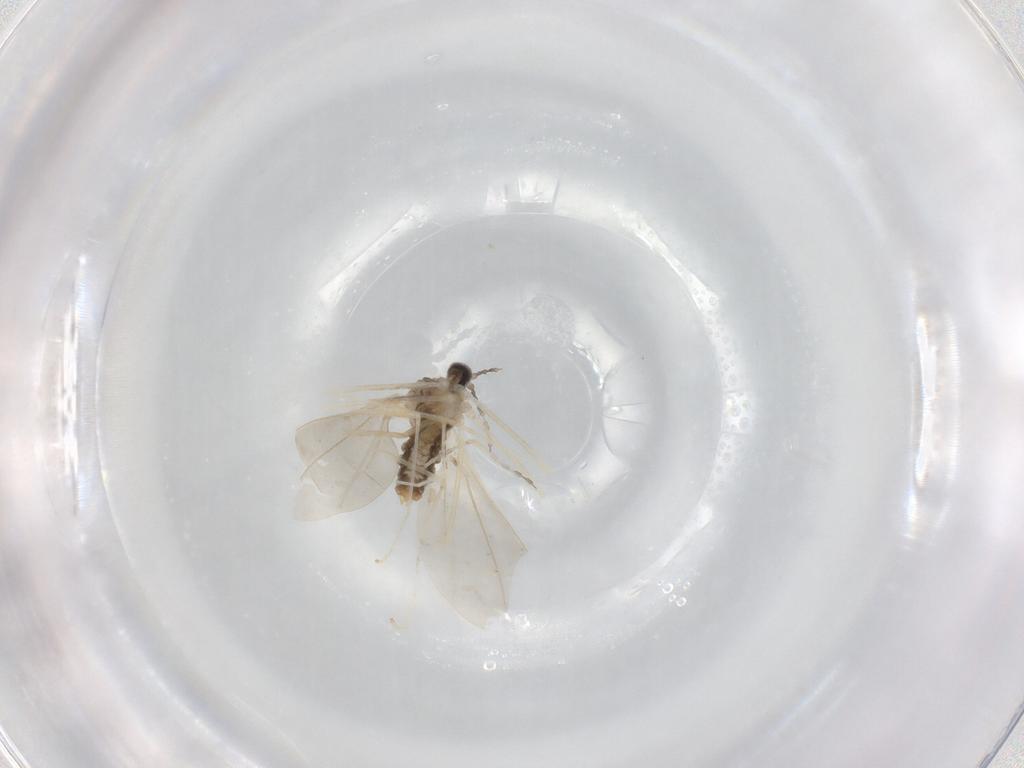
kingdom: Animalia
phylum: Arthropoda
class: Insecta
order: Diptera
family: Cecidomyiidae
